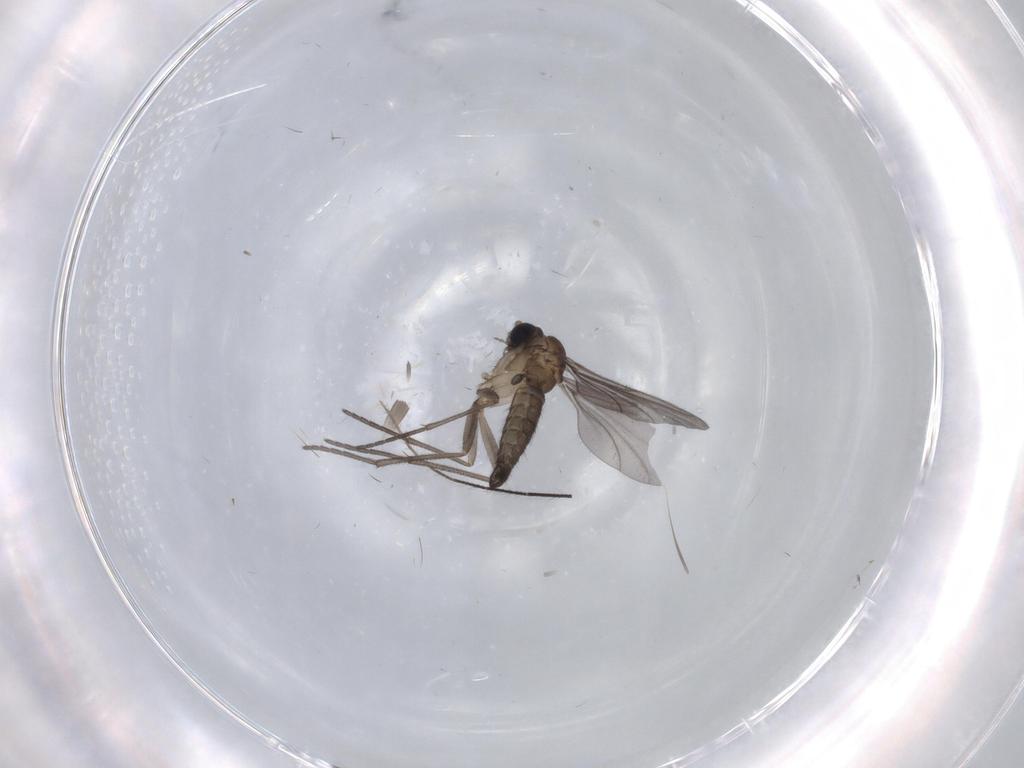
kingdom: Animalia
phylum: Arthropoda
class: Insecta
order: Diptera
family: Sciaridae
